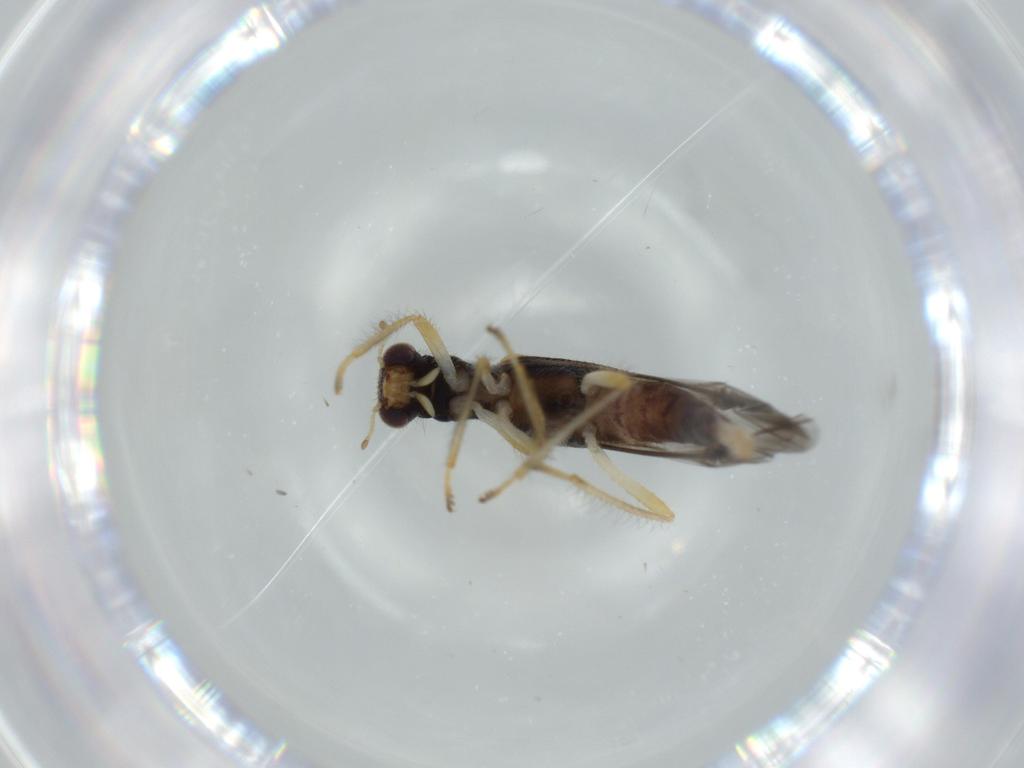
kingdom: Animalia
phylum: Arthropoda
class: Insecta
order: Coleoptera
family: Cleridae
